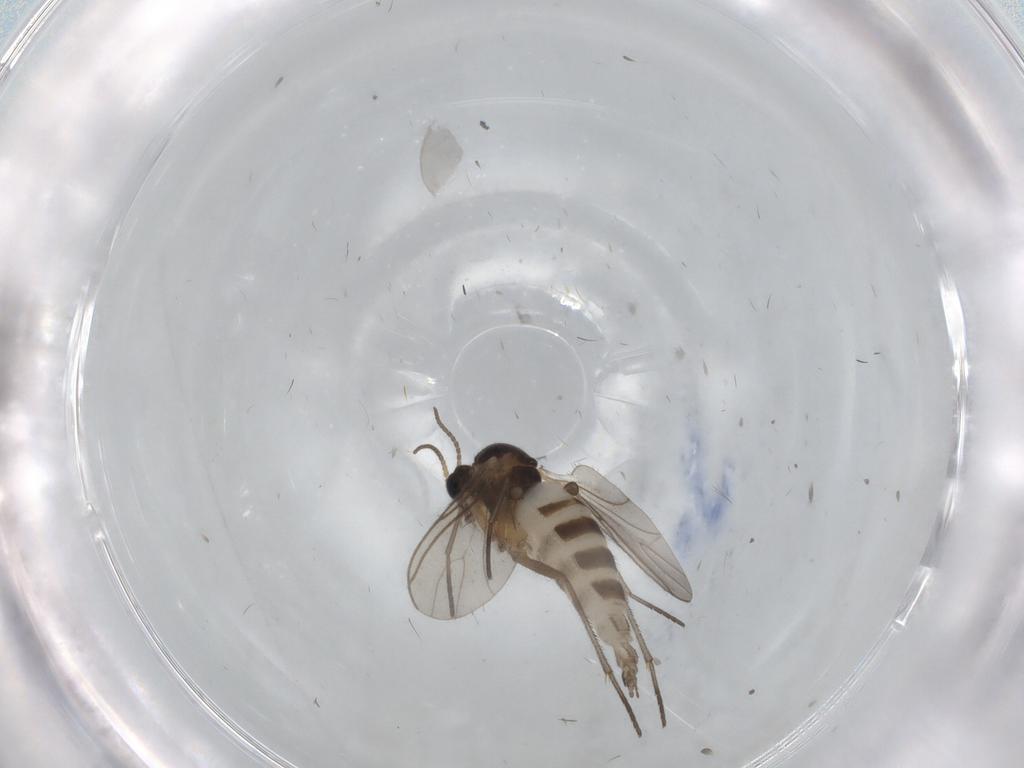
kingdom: Animalia
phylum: Arthropoda
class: Insecta
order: Diptera
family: Sciaridae
